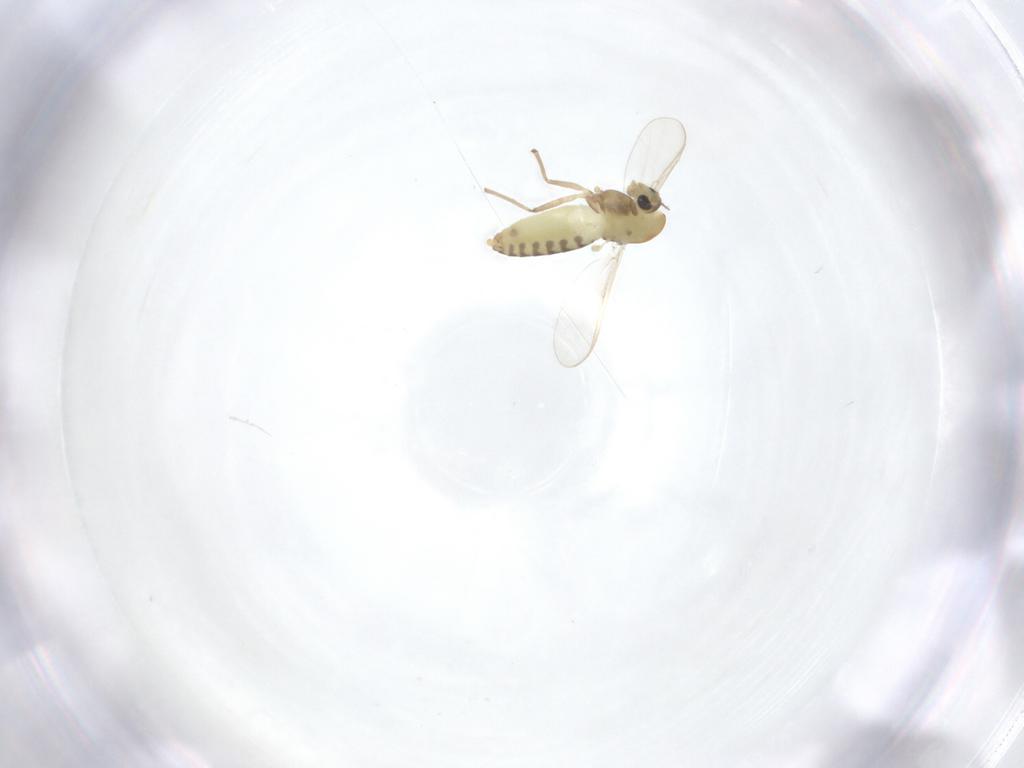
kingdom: Animalia
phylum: Arthropoda
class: Insecta
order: Diptera
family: Chironomidae
